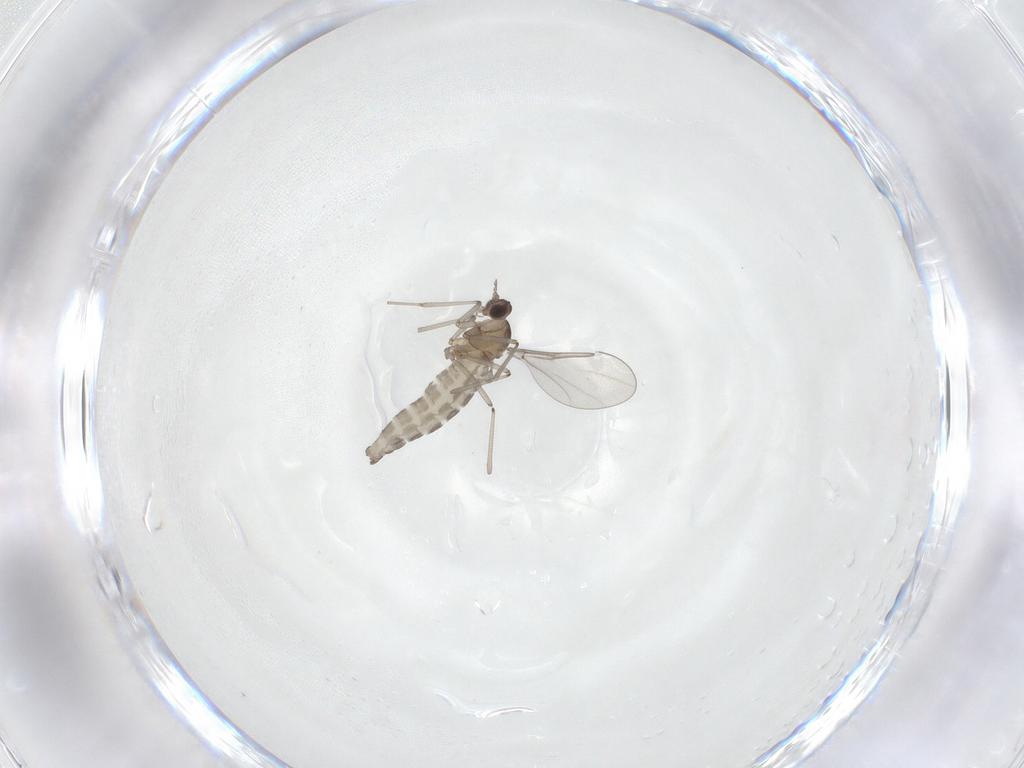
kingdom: Animalia
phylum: Arthropoda
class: Insecta
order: Diptera
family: Cecidomyiidae
